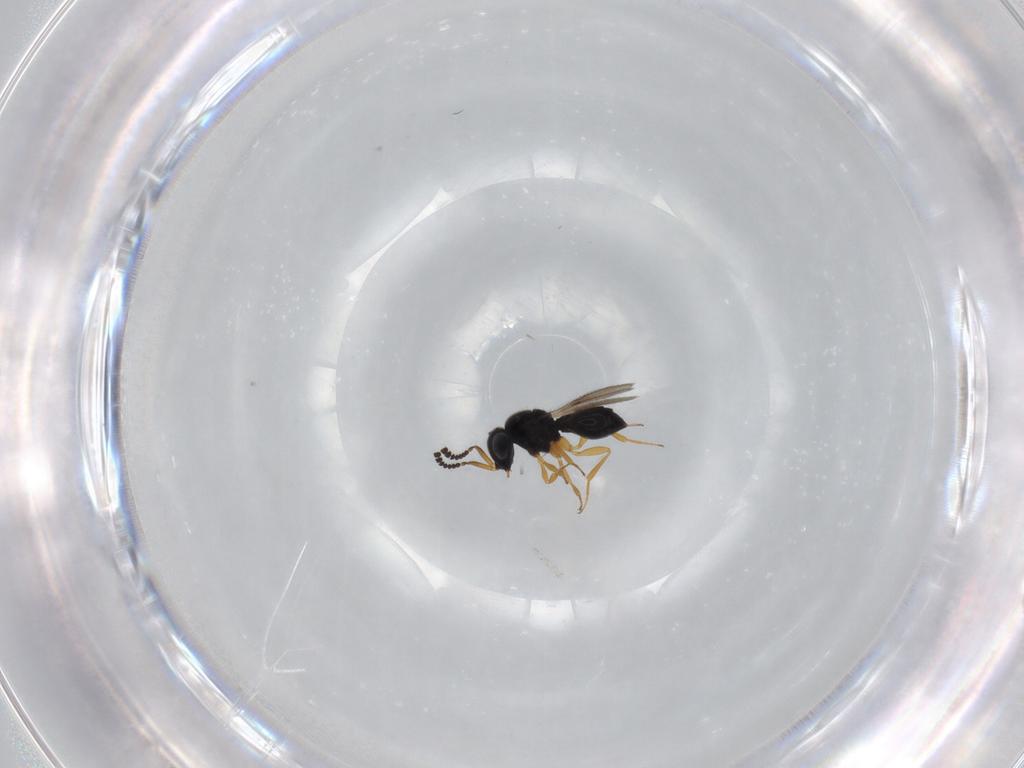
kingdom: Animalia
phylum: Arthropoda
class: Insecta
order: Hymenoptera
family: Scelionidae
